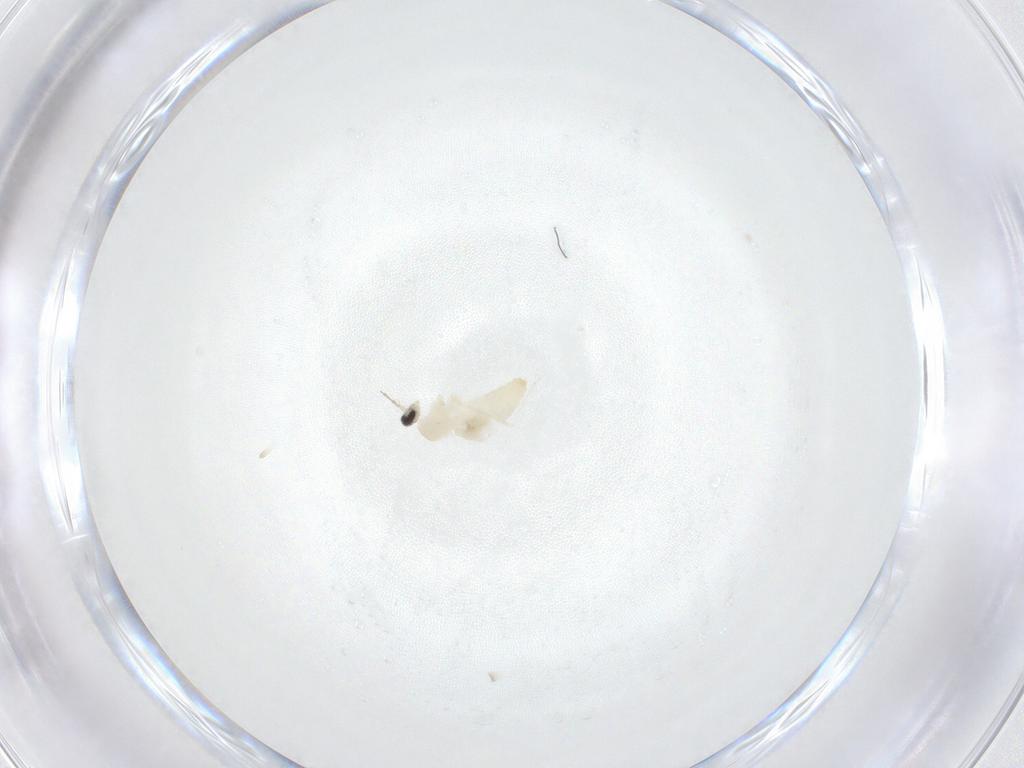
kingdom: Animalia
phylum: Arthropoda
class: Insecta
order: Diptera
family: Cecidomyiidae
